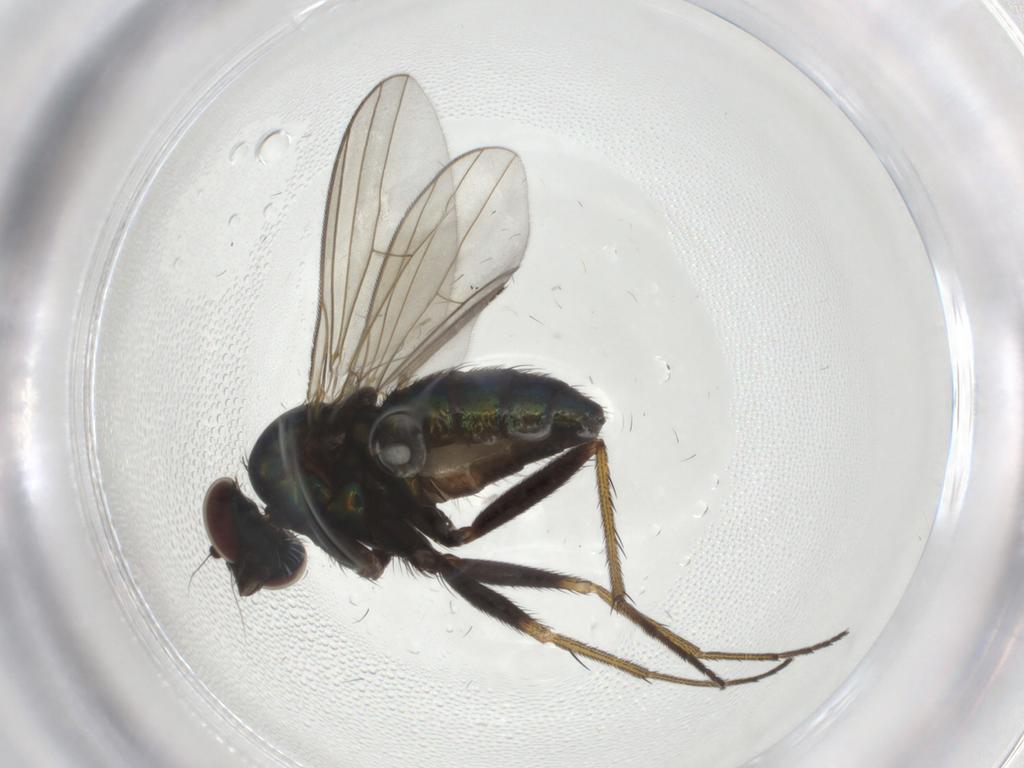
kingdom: Animalia
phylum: Arthropoda
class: Insecta
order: Diptera
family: Dolichopodidae
